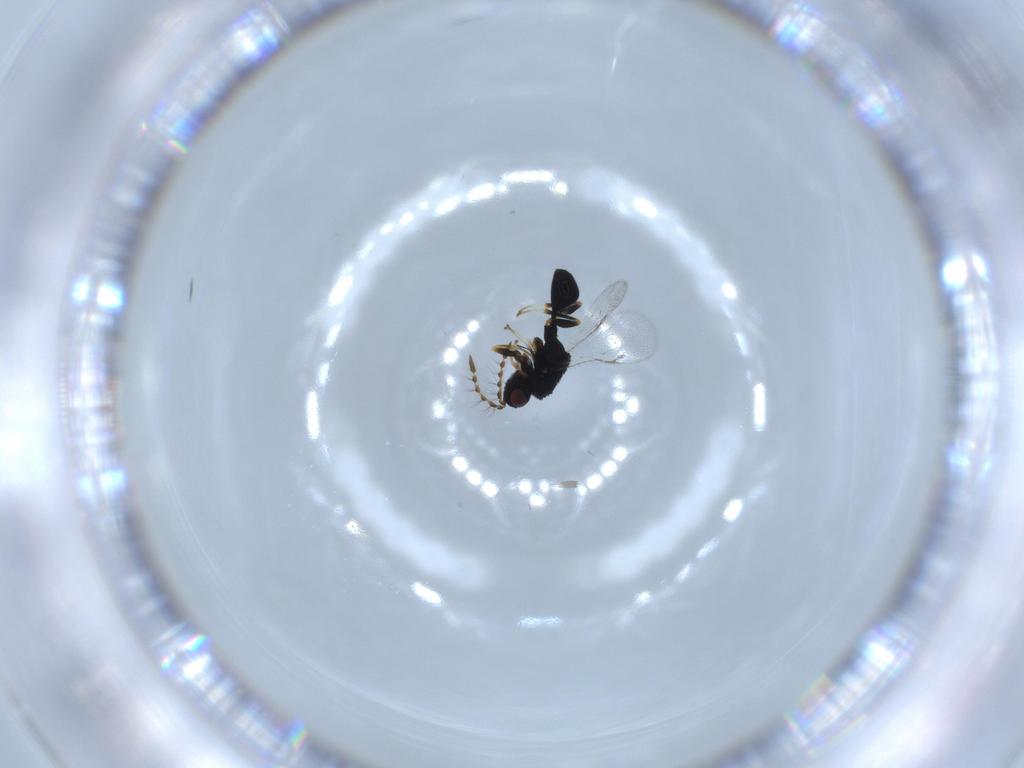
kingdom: Animalia
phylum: Arthropoda
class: Insecta
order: Hymenoptera
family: Eurytomidae
